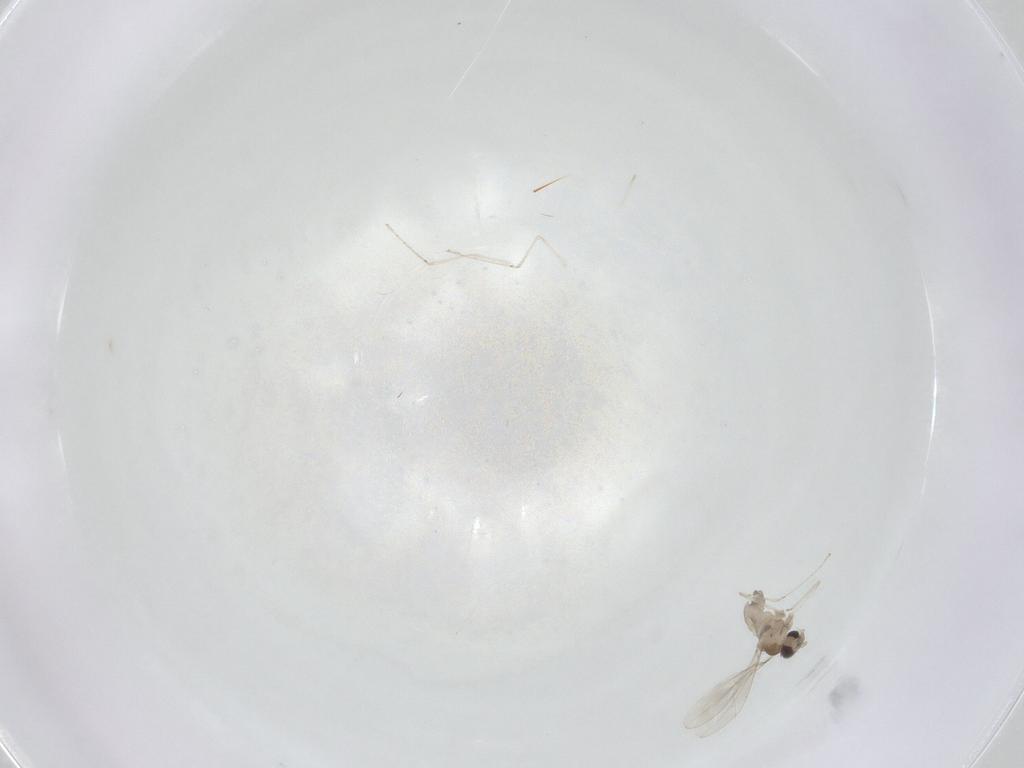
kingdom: Animalia
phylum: Arthropoda
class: Insecta
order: Diptera
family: Cecidomyiidae
